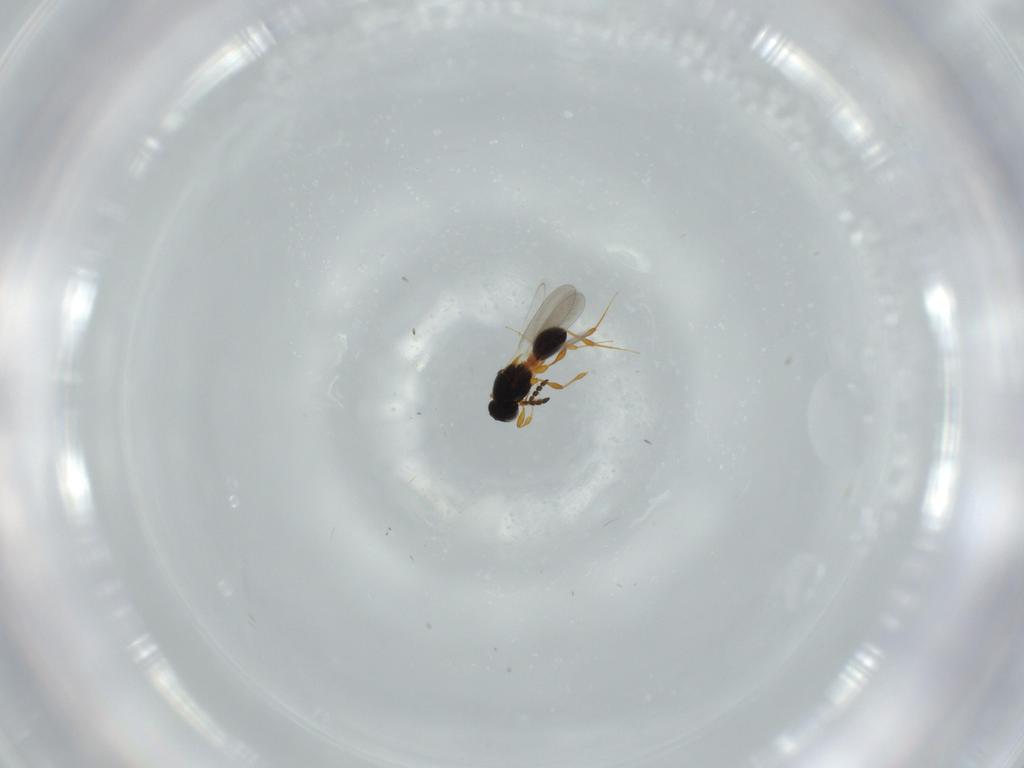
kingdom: Animalia
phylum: Arthropoda
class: Insecta
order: Hymenoptera
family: Platygastridae
